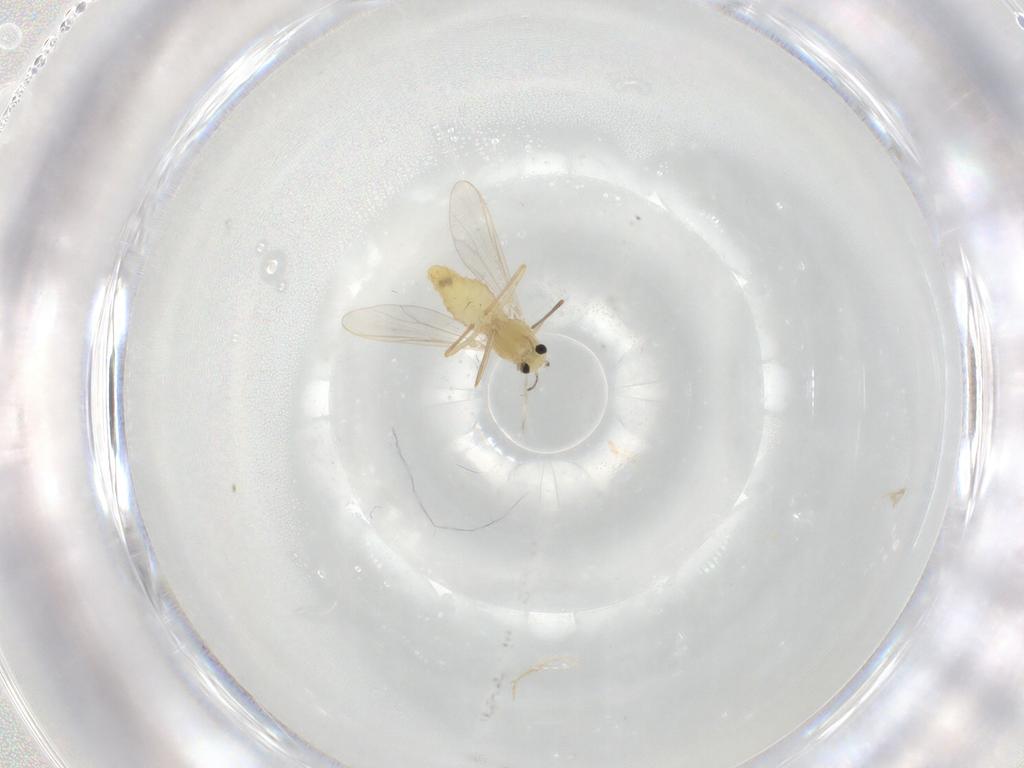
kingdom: Animalia
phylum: Arthropoda
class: Insecta
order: Diptera
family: Chironomidae
